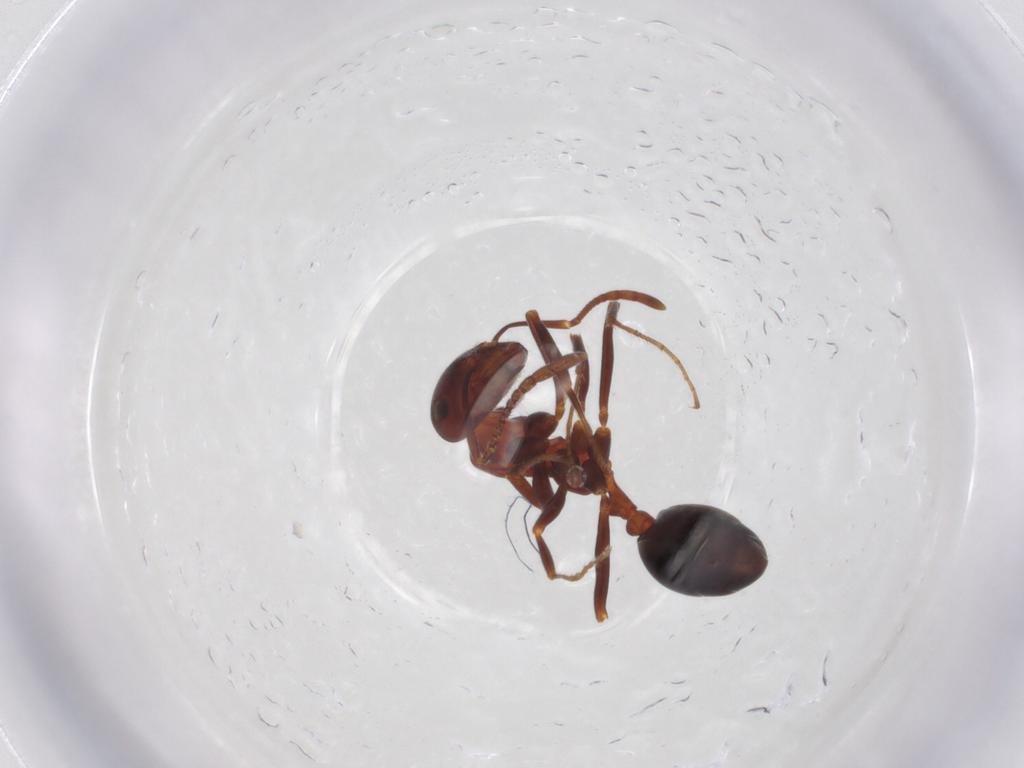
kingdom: Animalia
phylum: Arthropoda
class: Insecta
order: Hymenoptera
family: Formicidae
